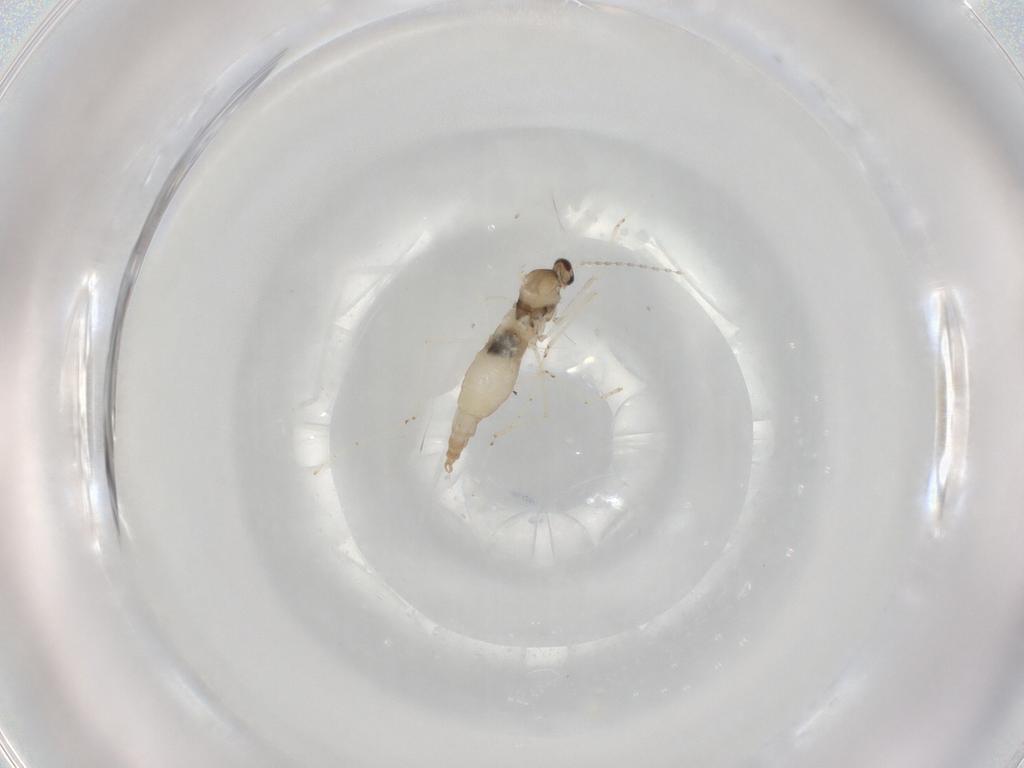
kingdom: Animalia
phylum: Arthropoda
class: Insecta
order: Diptera
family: Cecidomyiidae
